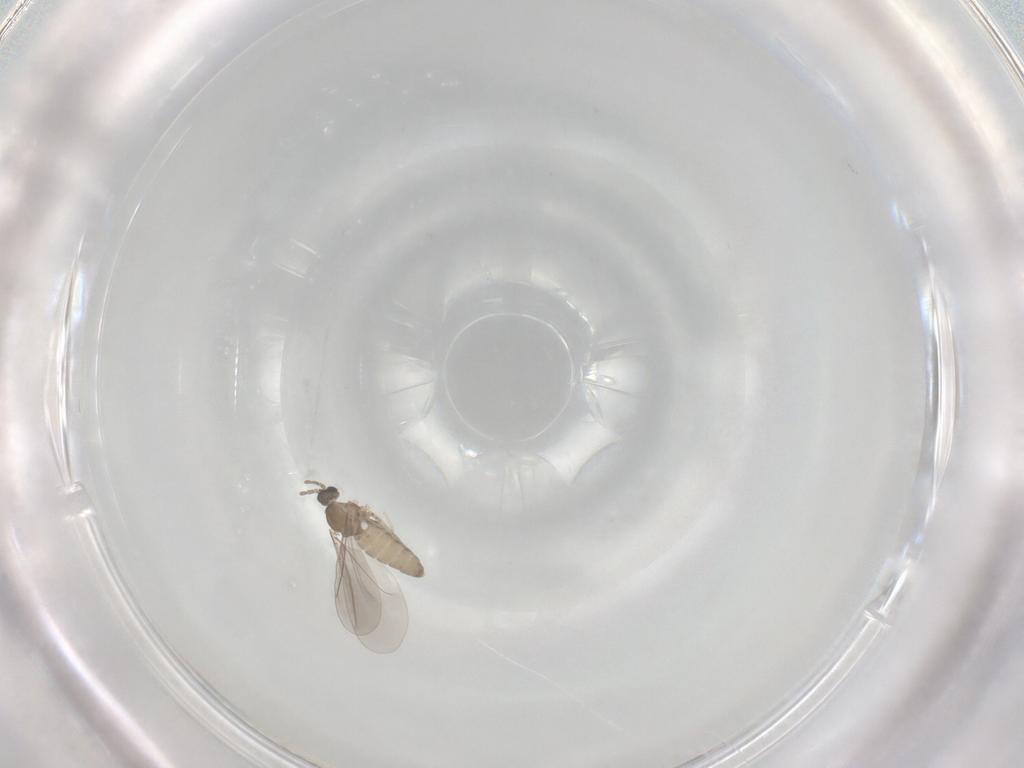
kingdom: Animalia
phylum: Arthropoda
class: Insecta
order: Diptera
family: Cecidomyiidae
